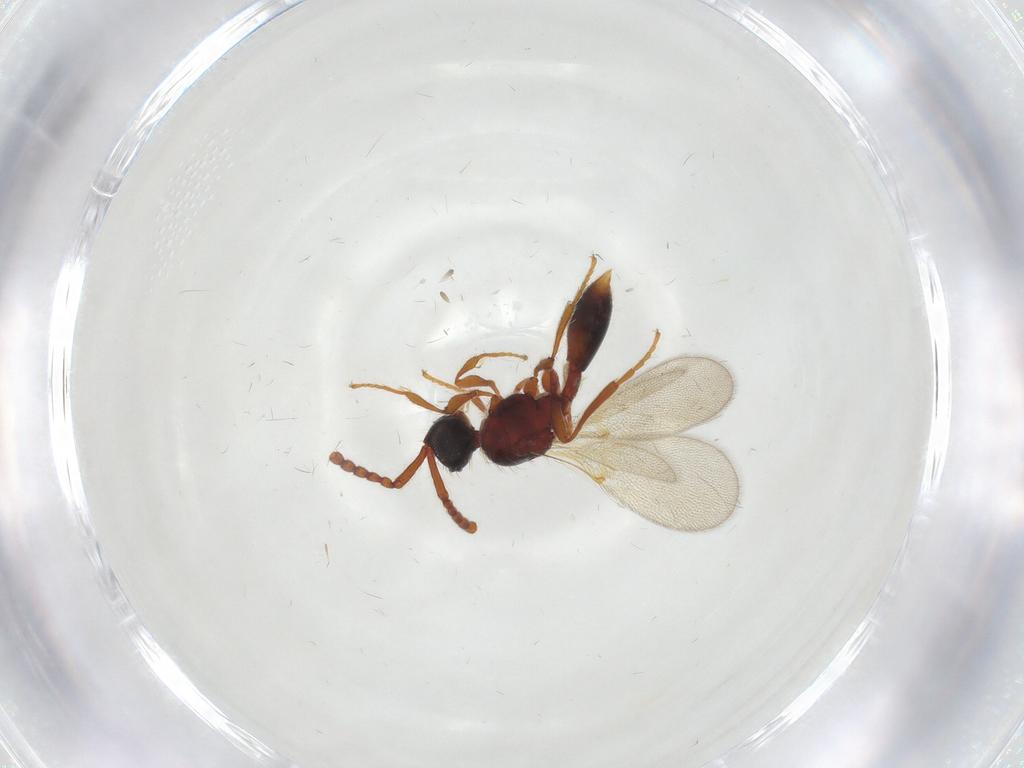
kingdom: Animalia
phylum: Arthropoda
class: Insecta
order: Hymenoptera
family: Diapriidae
